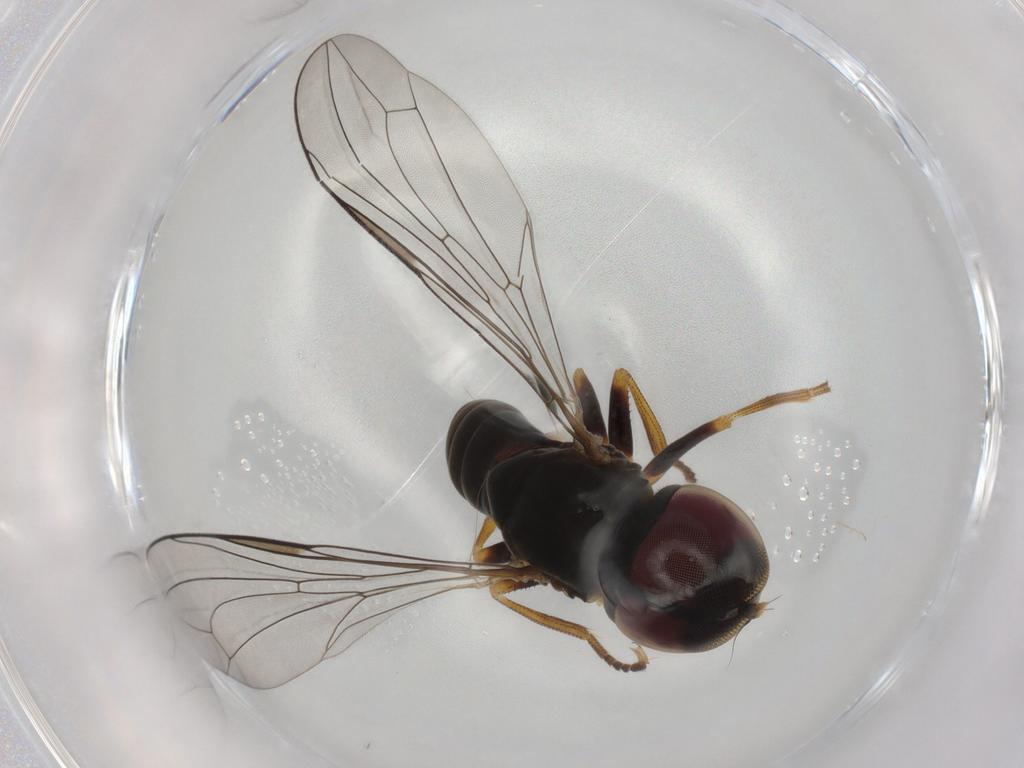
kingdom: Animalia
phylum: Arthropoda
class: Insecta
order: Diptera
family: Pipunculidae
